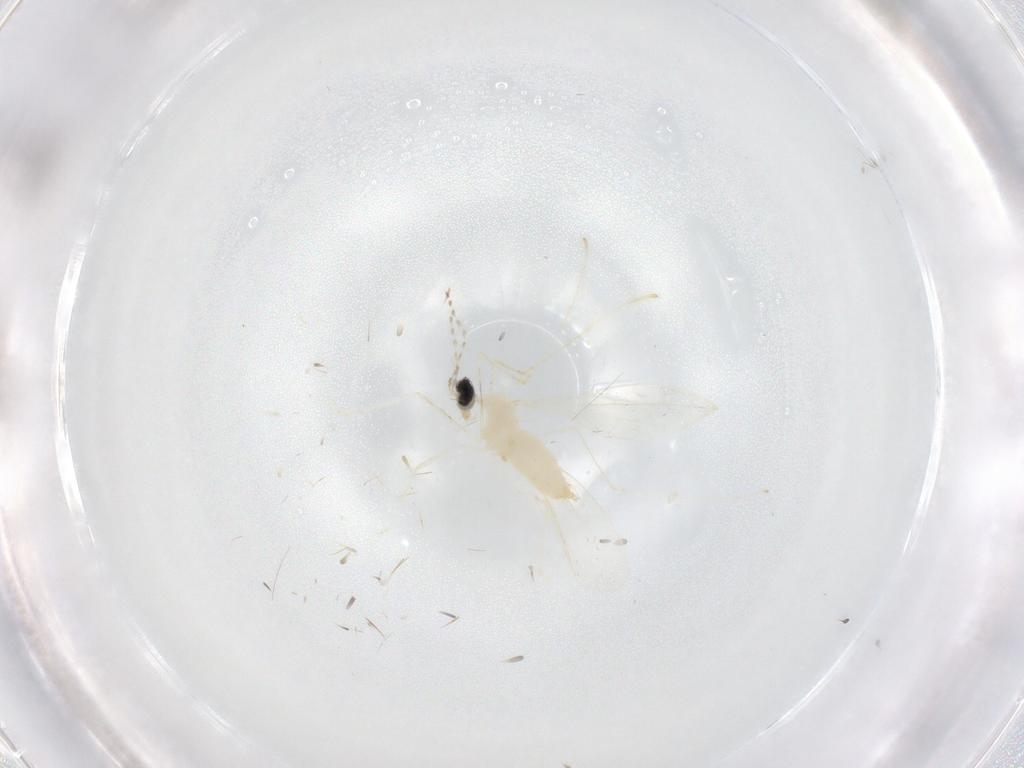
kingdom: Animalia
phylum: Arthropoda
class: Insecta
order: Diptera
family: Cecidomyiidae
